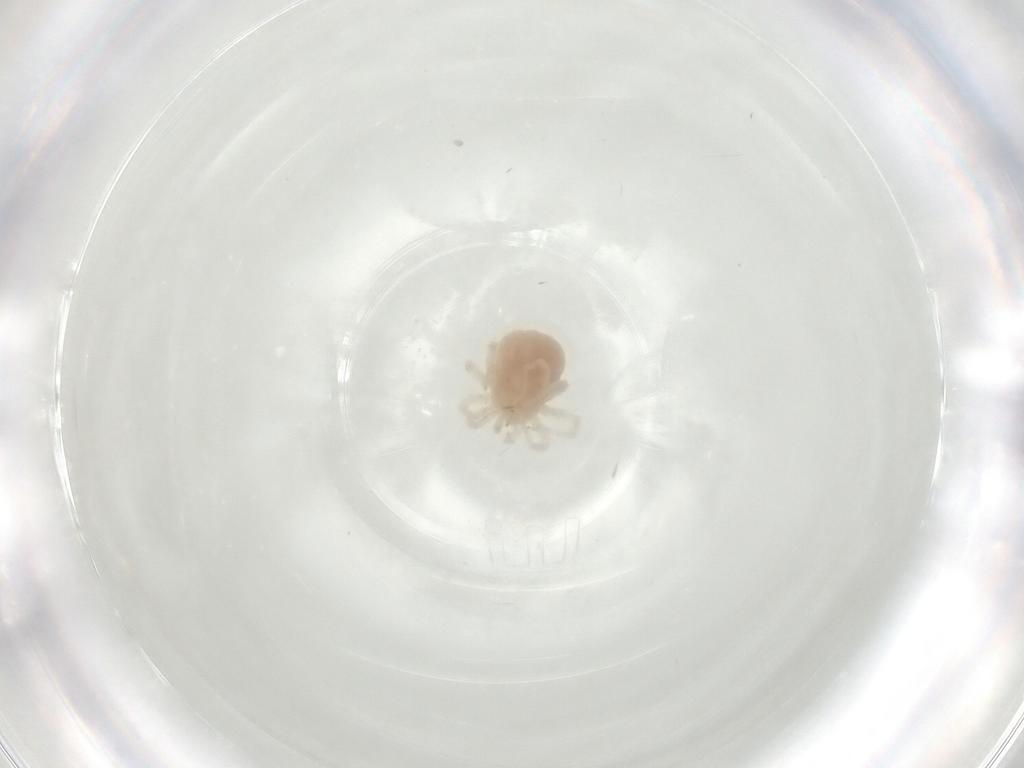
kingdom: Animalia
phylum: Arthropoda
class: Arachnida
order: Trombidiformes
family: Anystidae
